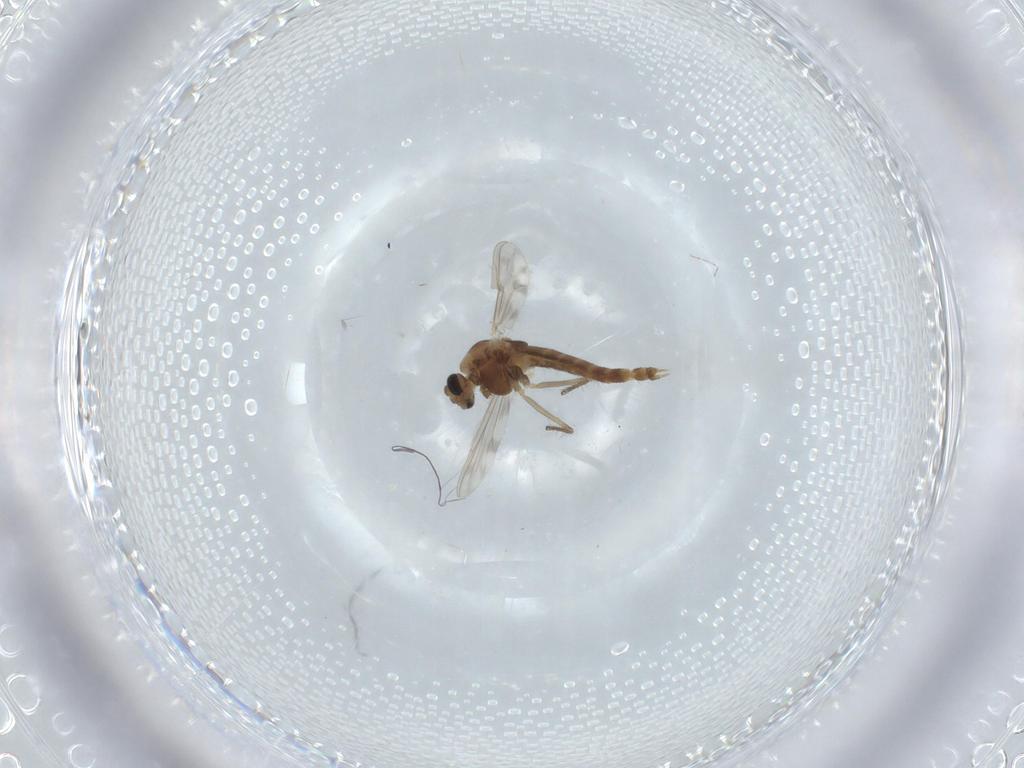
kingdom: Animalia
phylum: Arthropoda
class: Insecta
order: Diptera
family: Chironomidae
